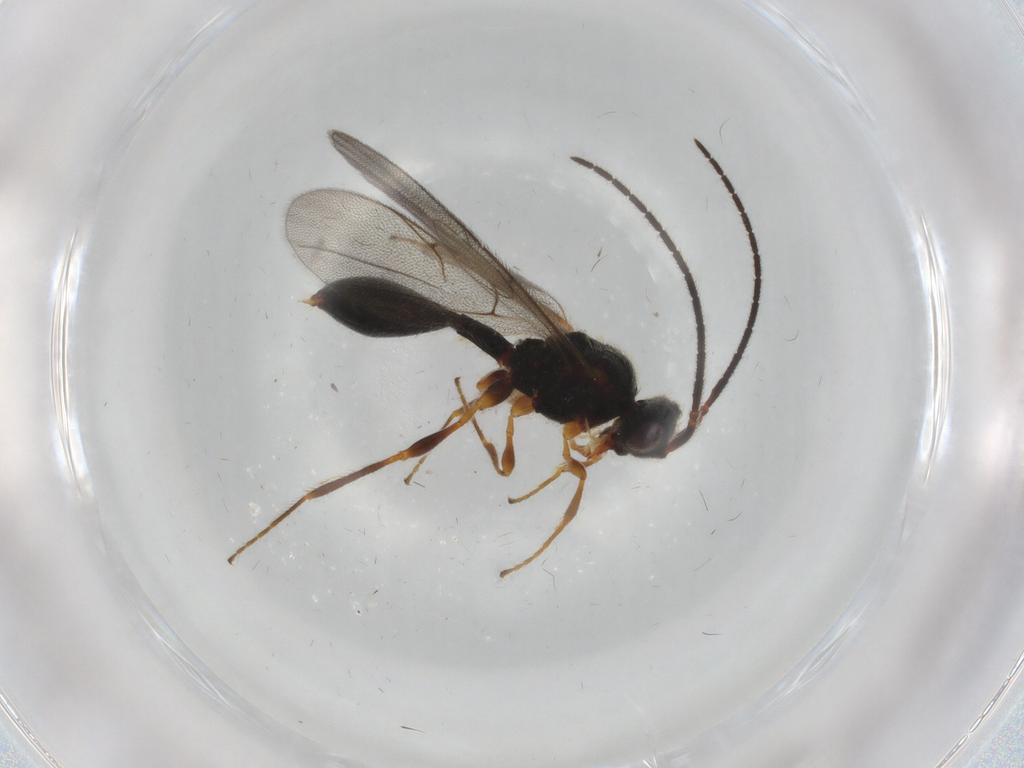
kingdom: Animalia
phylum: Arthropoda
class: Insecta
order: Hymenoptera
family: Diapriidae
